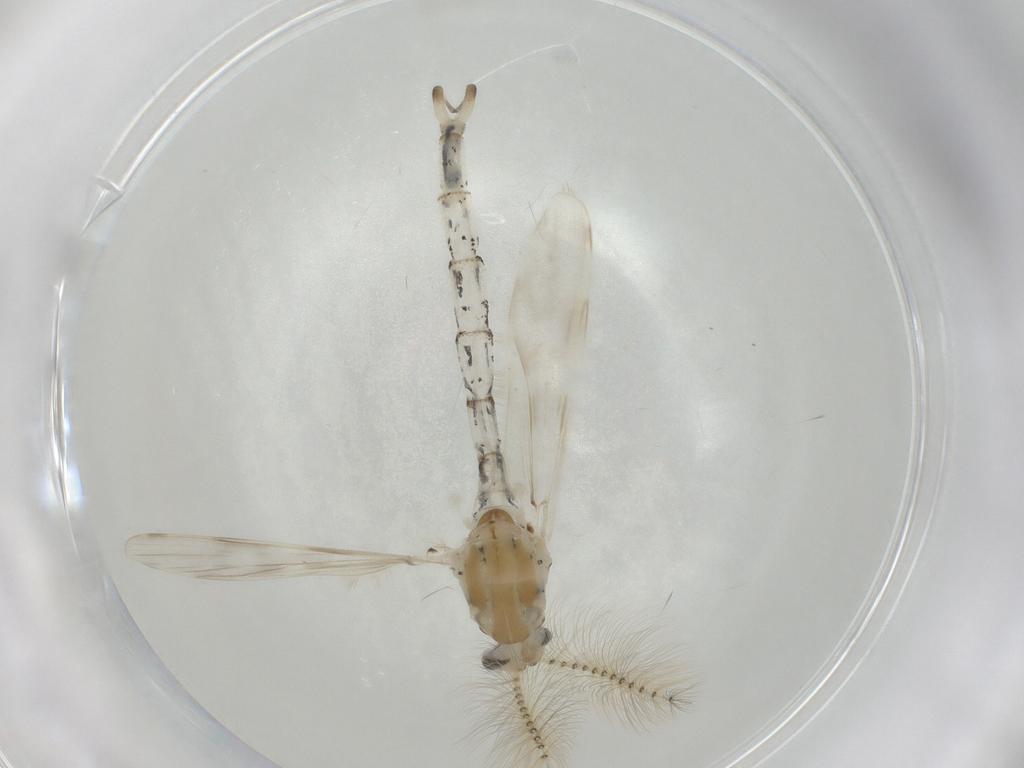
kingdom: Animalia
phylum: Arthropoda
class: Insecta
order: Diptera
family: Chaoboridae
